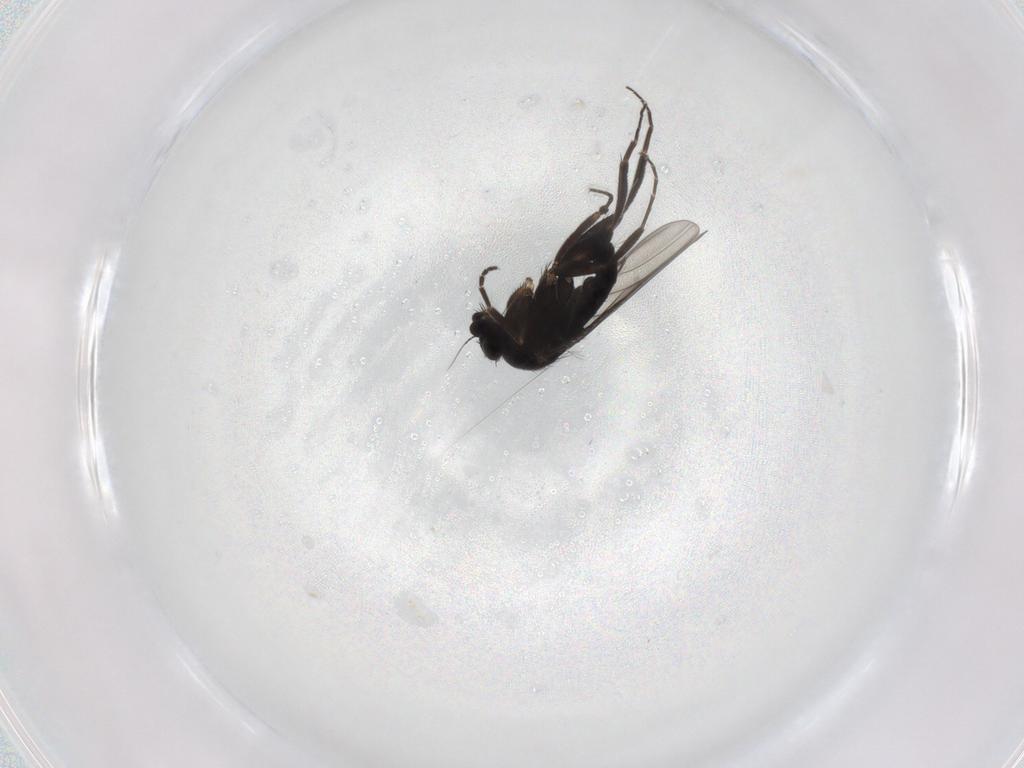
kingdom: Animalia
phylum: Arthropoda
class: Insecta
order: Diptera
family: Phoridae
